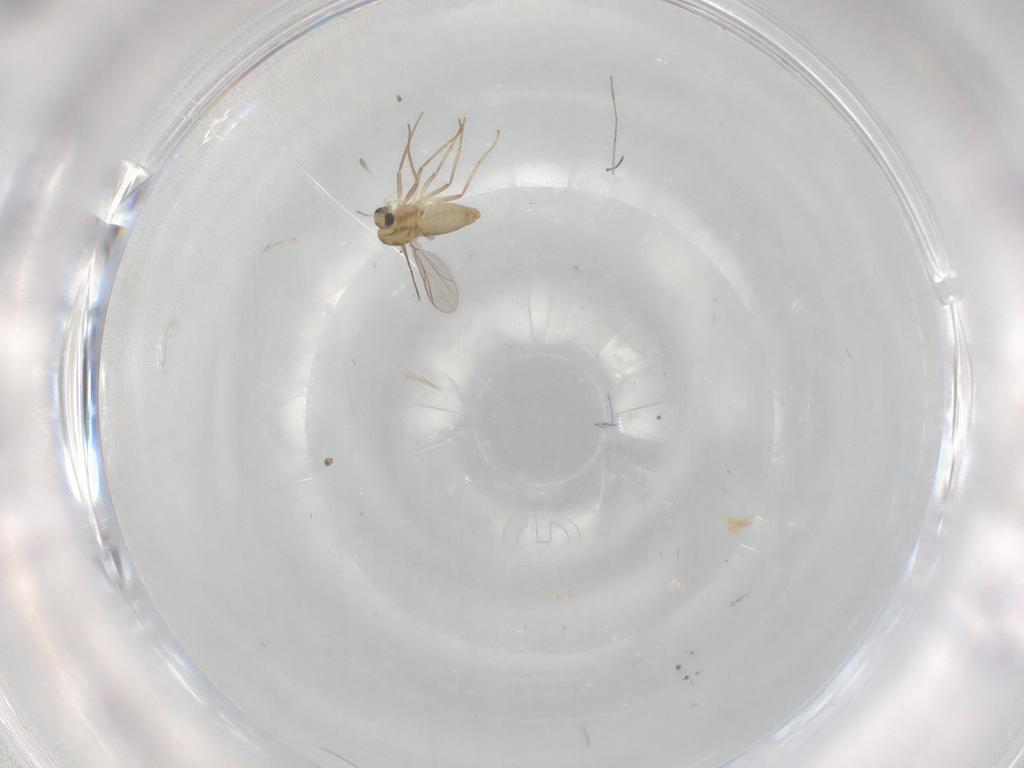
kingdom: Animalia
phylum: Arthropoda
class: Insecta
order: Diptera
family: Chironomidae
